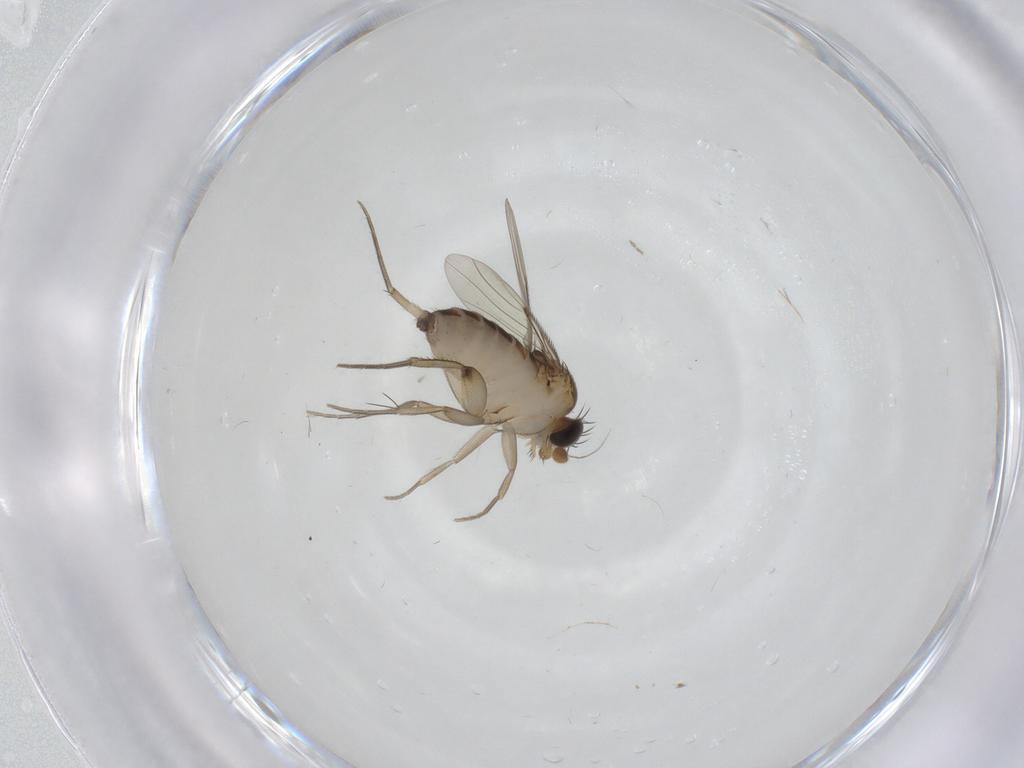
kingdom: Animalia
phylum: Arthropoda
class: Insecta
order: Diptera
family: Phoridae
